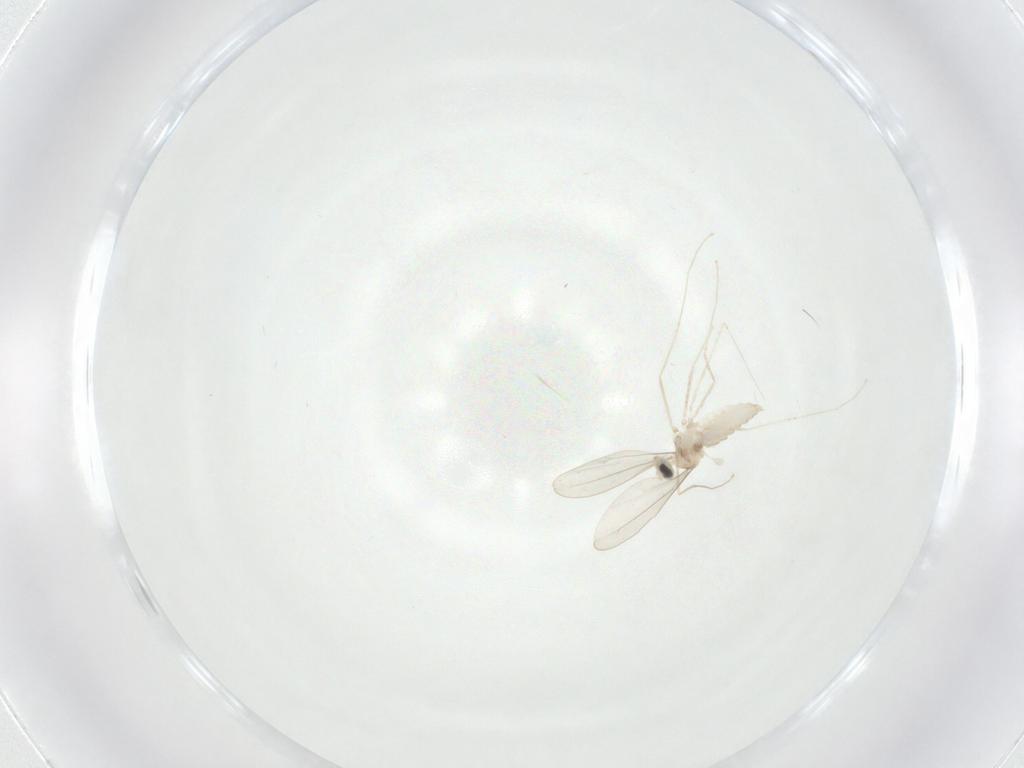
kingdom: Animalia
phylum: Arthropoda
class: Insecta
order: Diptera
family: Cecidomyiidae
